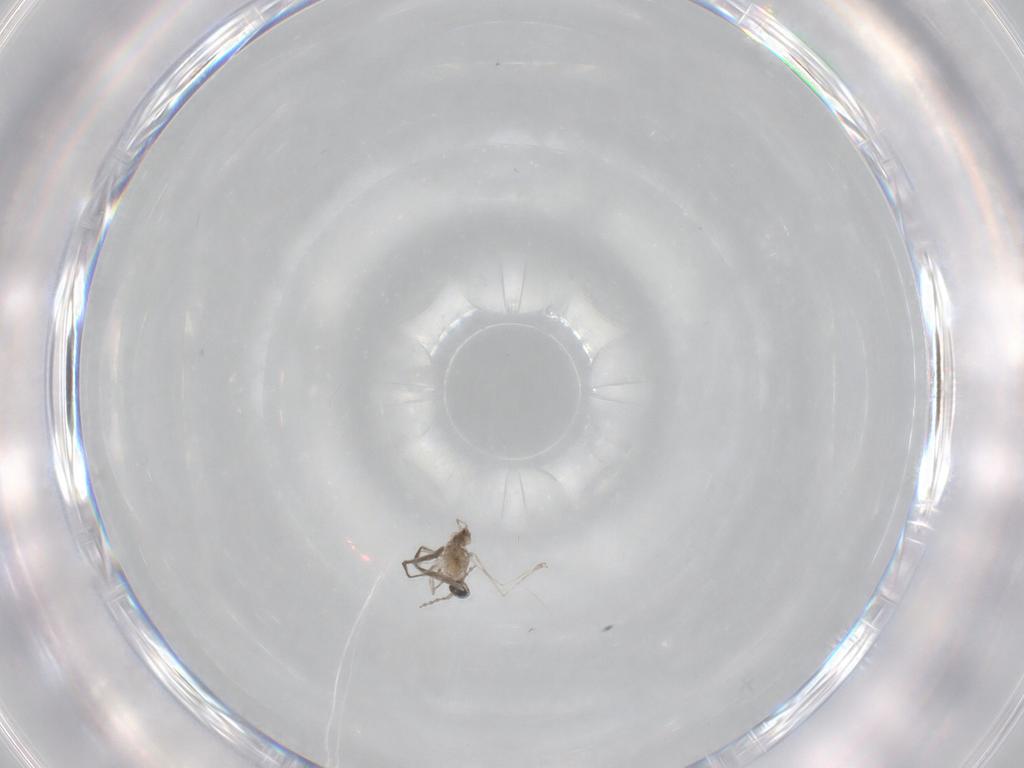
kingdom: Animalia
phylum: Arthropoda
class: Insecta
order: Diptera
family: Cecidomyiidae
